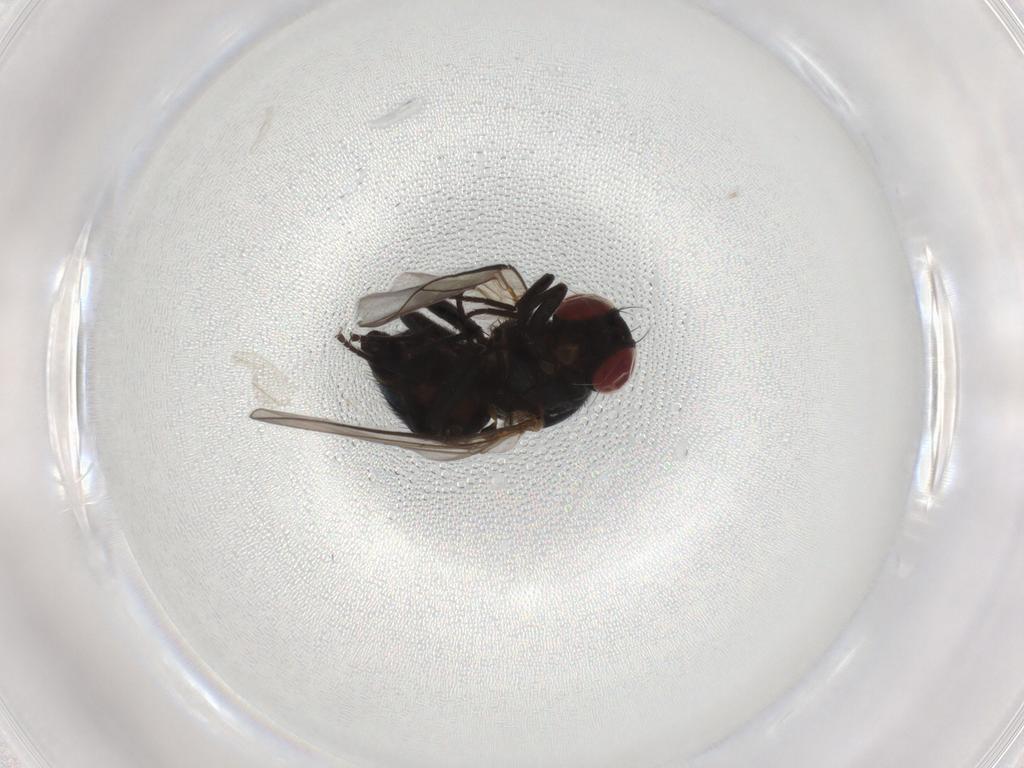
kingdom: Animalia
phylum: Arthropoda
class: Insecta
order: Diptera
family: Agromyzidae
